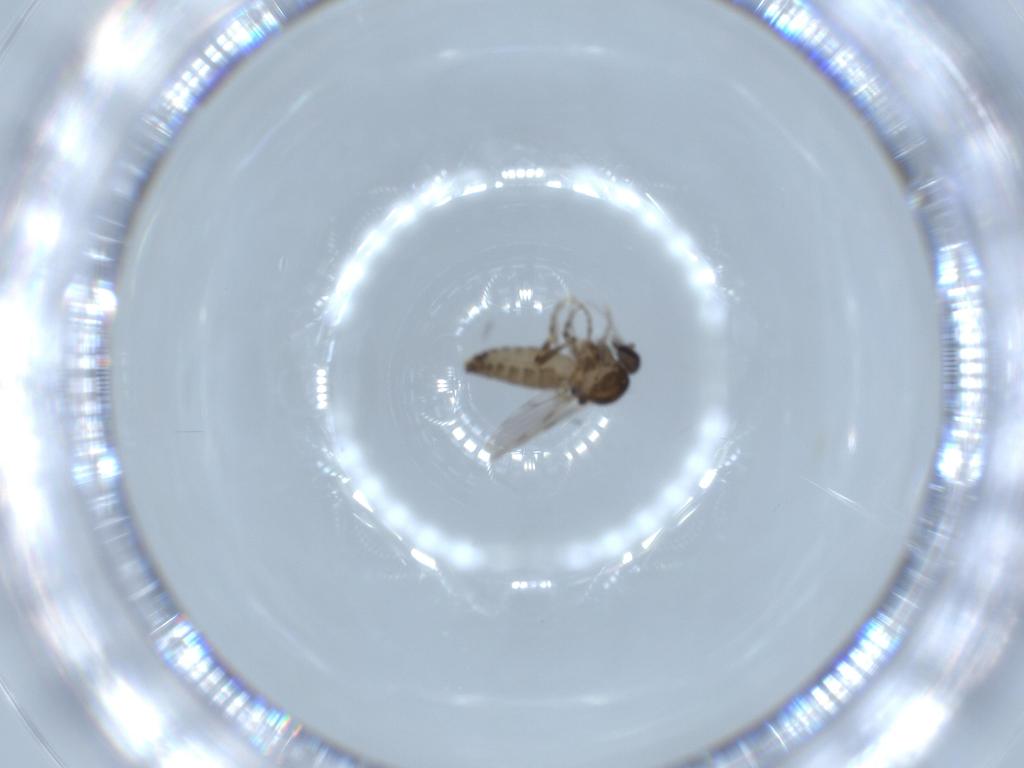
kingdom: Animalia
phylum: Arthropoda
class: Insecta
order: Diptera
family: Ceratopogonidae
